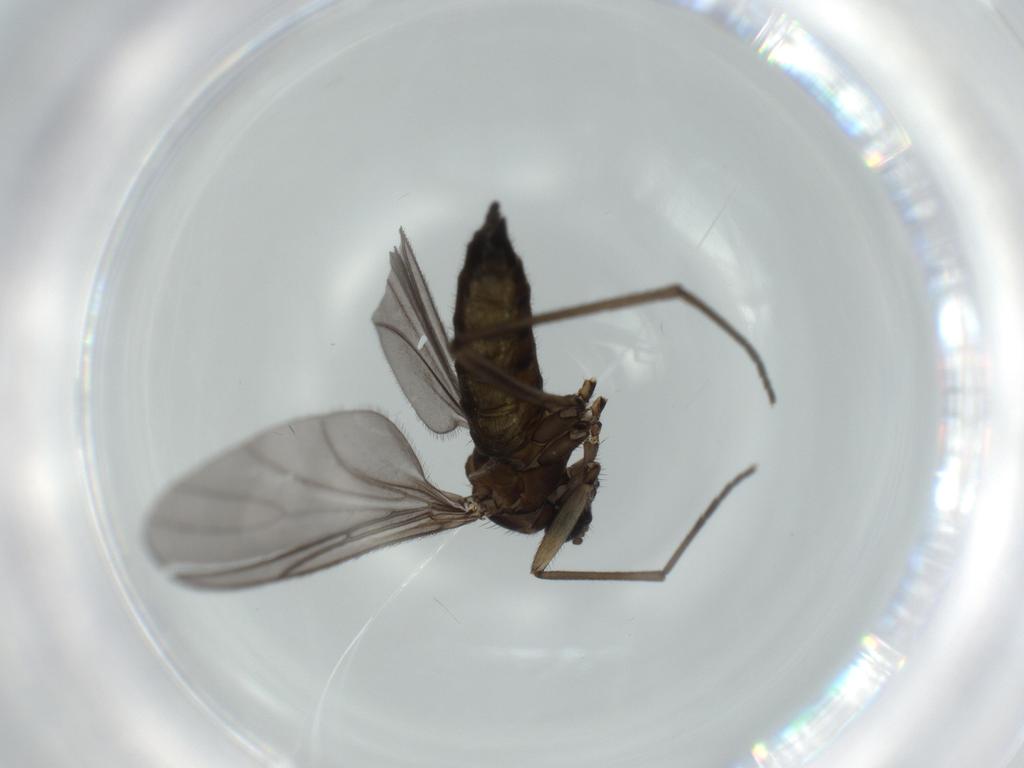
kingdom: Animalia
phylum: Arthropoda
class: Insecta
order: Diptera
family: Sciaridae
